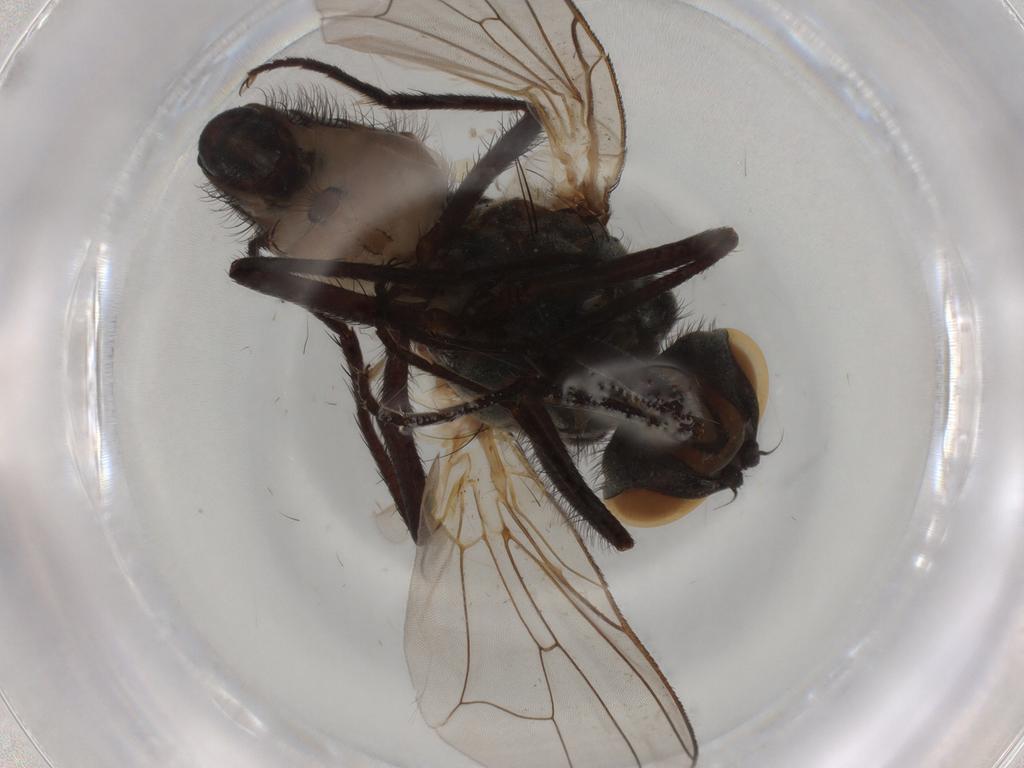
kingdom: Animalia
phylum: Arthropoda
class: Insecta
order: Diptera
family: Anthomyiidae
